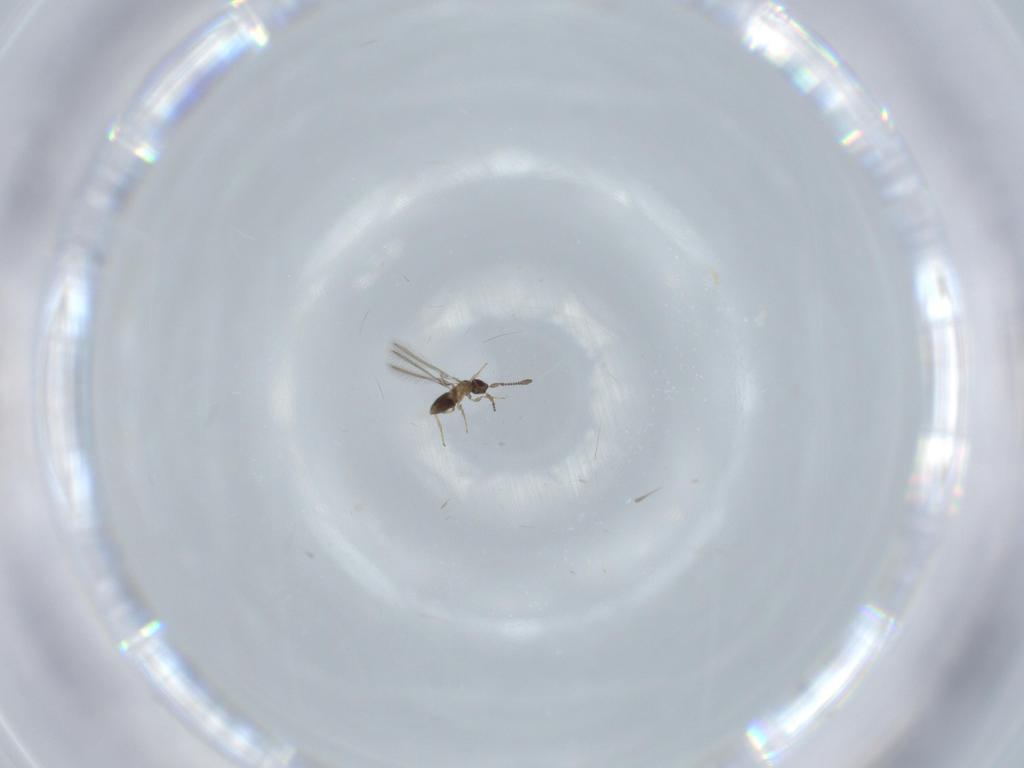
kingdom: Animalia
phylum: Arthropoda
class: Insecta
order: Hymenoptera
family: Mymaridae
